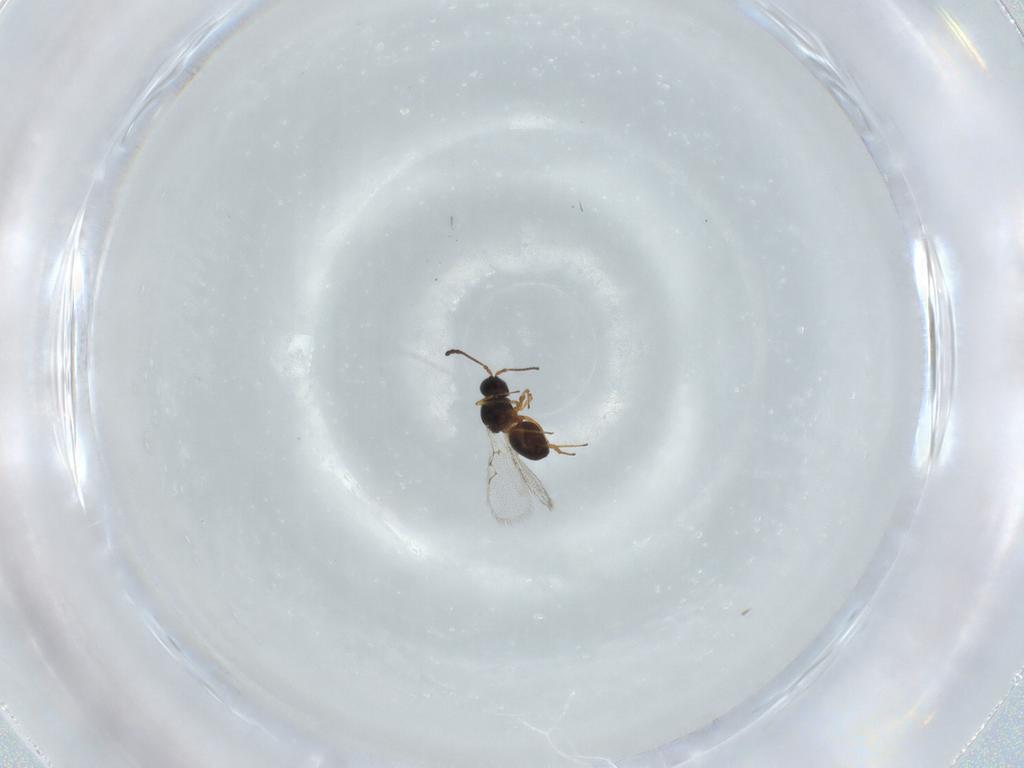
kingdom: Animalia
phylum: Arthropoda
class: Insecta
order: Hymenoptera
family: Figitidae
